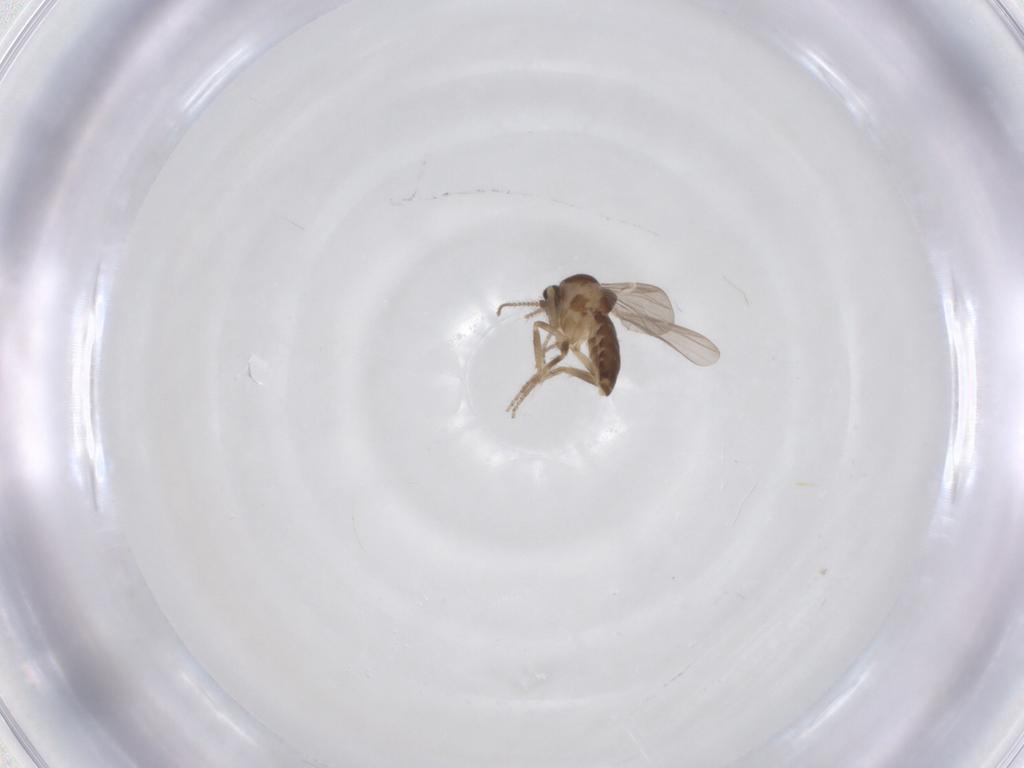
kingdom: Animalia
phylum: Arthropoda
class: Insecta
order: Diptera
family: Ceratopogonidae
